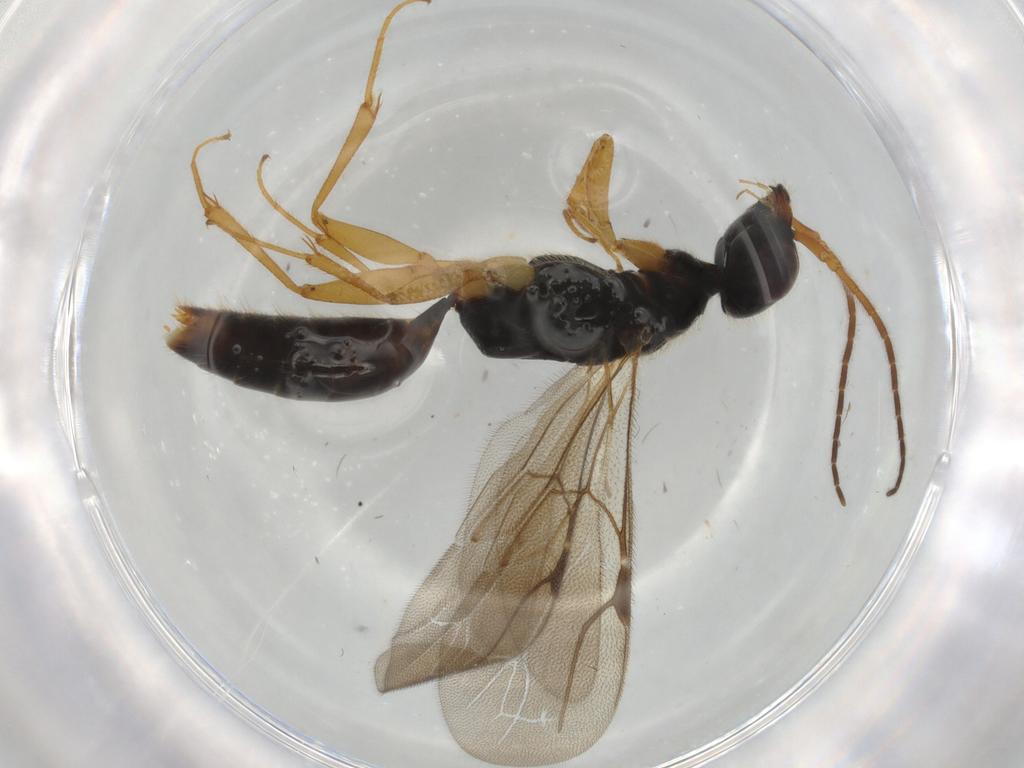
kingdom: Animalia
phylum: Arthropoda
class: Insecta
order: Hymenoptera
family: Bethylidae
